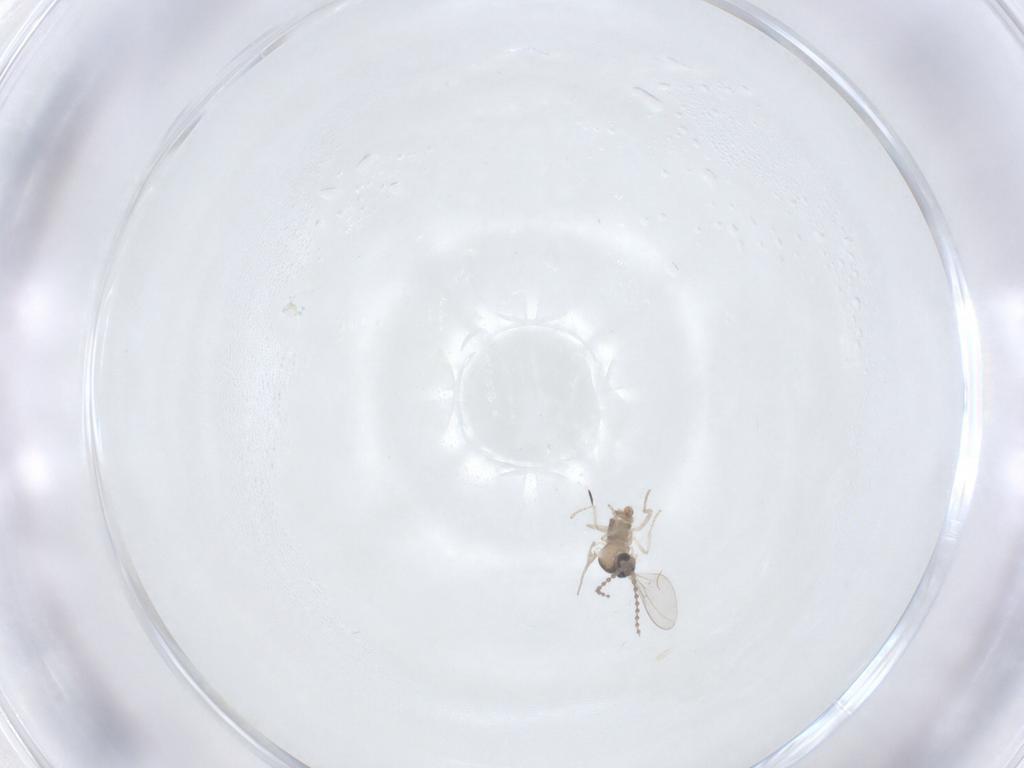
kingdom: Animalia
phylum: Arthropoda
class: Insecta
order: Diptera
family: Cecidomyiidae
